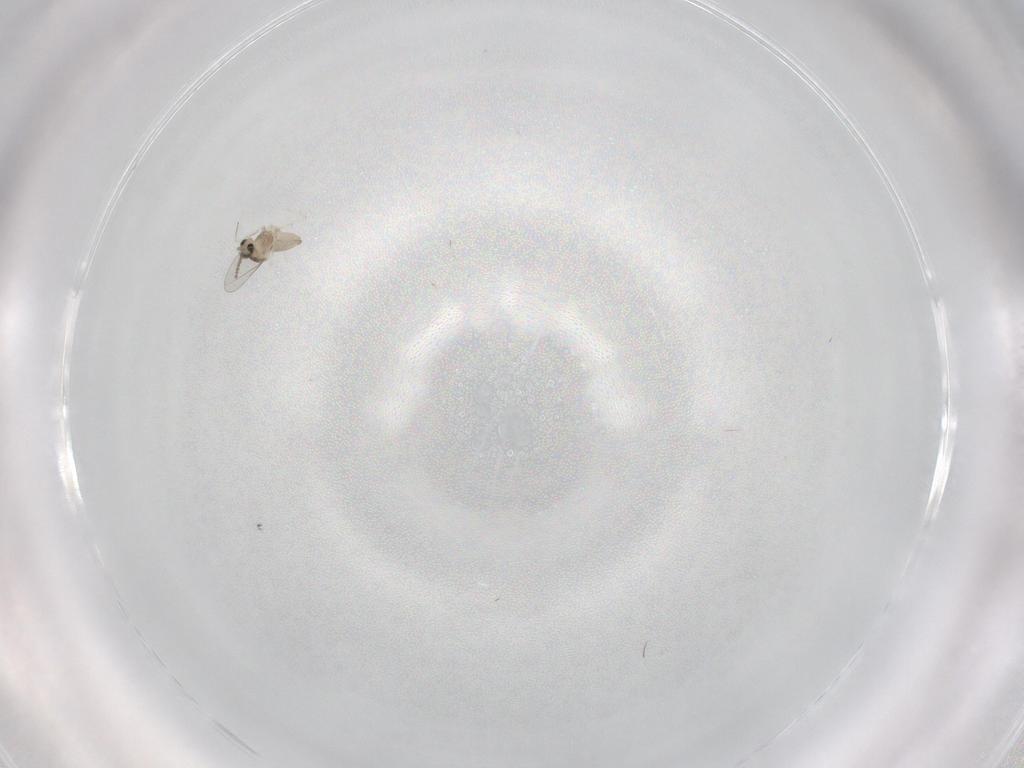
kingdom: Animalia
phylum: Arthropoda
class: Insecta
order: Diptera
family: Cecidomyiidae
